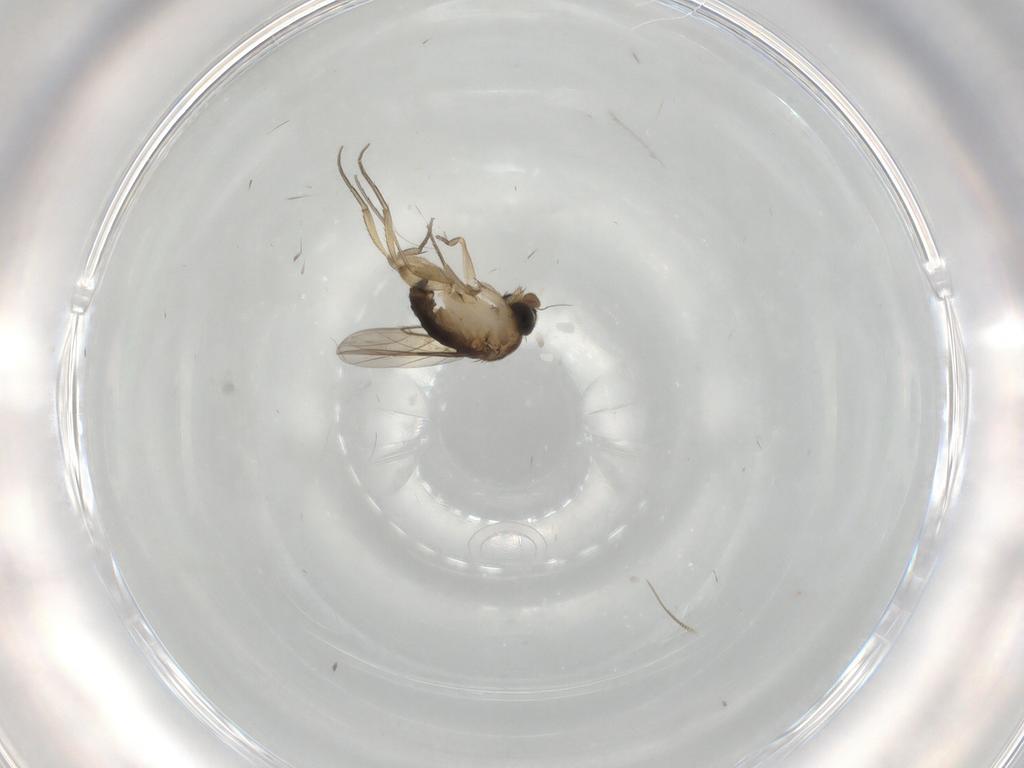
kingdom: Animalia
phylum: Arthropoda
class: Insecta
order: Diptera
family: Phoridae
